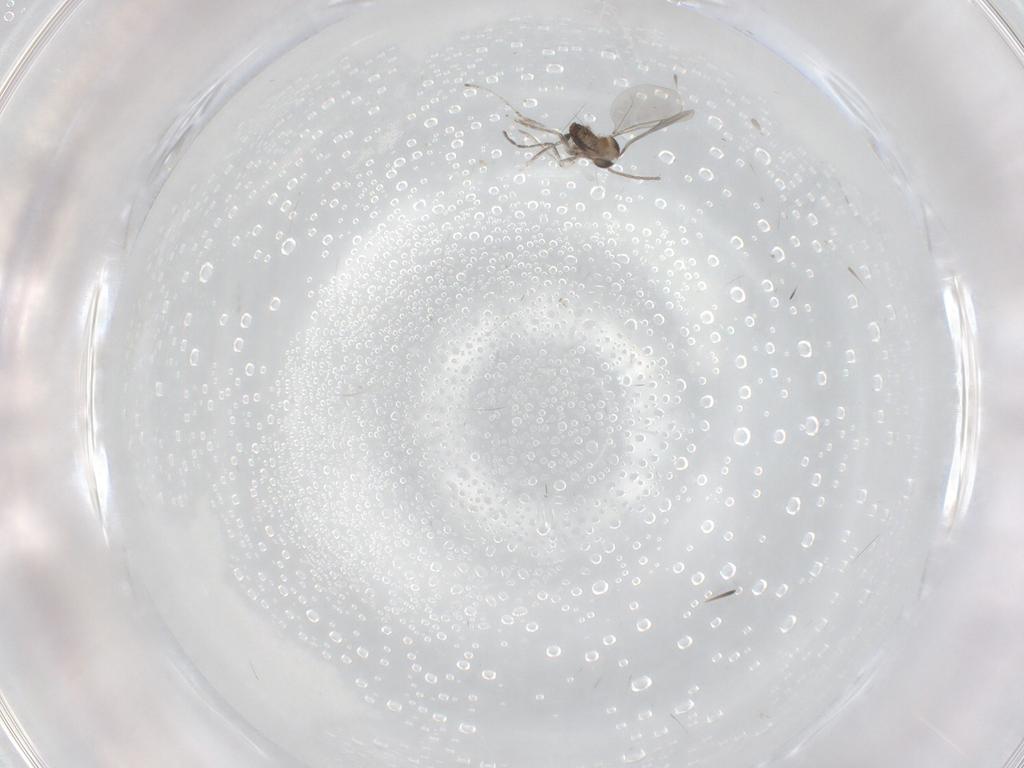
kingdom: Animalia
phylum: Arthropoda
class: Insecta
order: Diptera
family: Cecidomyiidae
